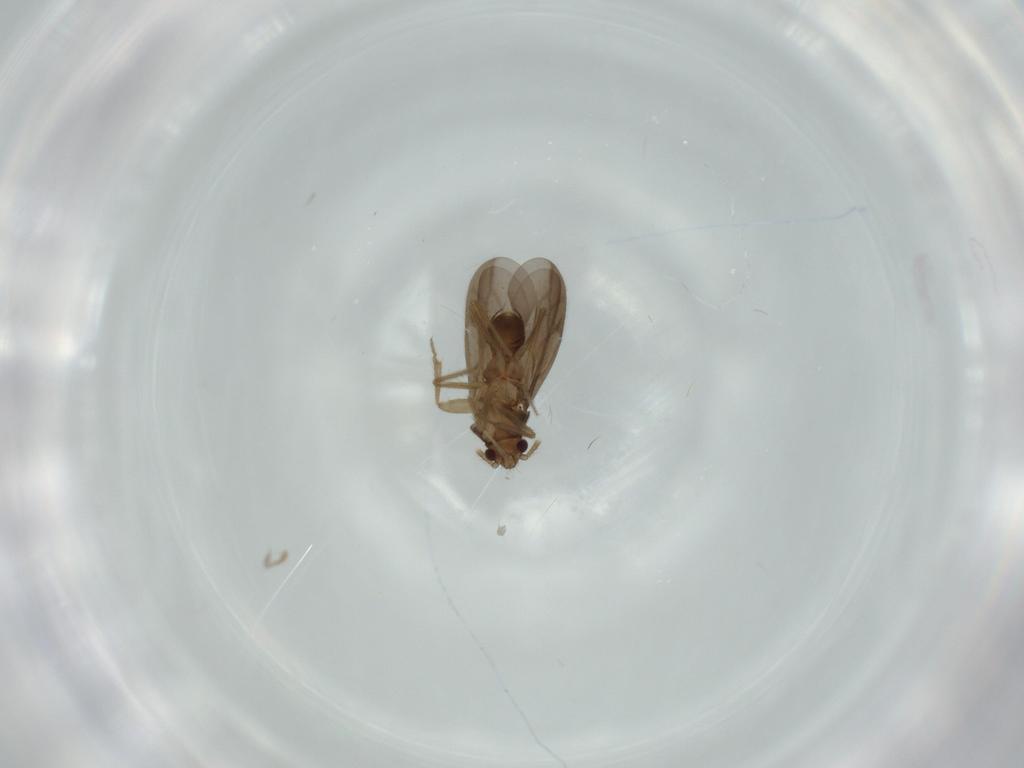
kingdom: Animalia
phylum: Arthropoda
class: Insecta
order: Hemiptera
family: Ceratocombidae
